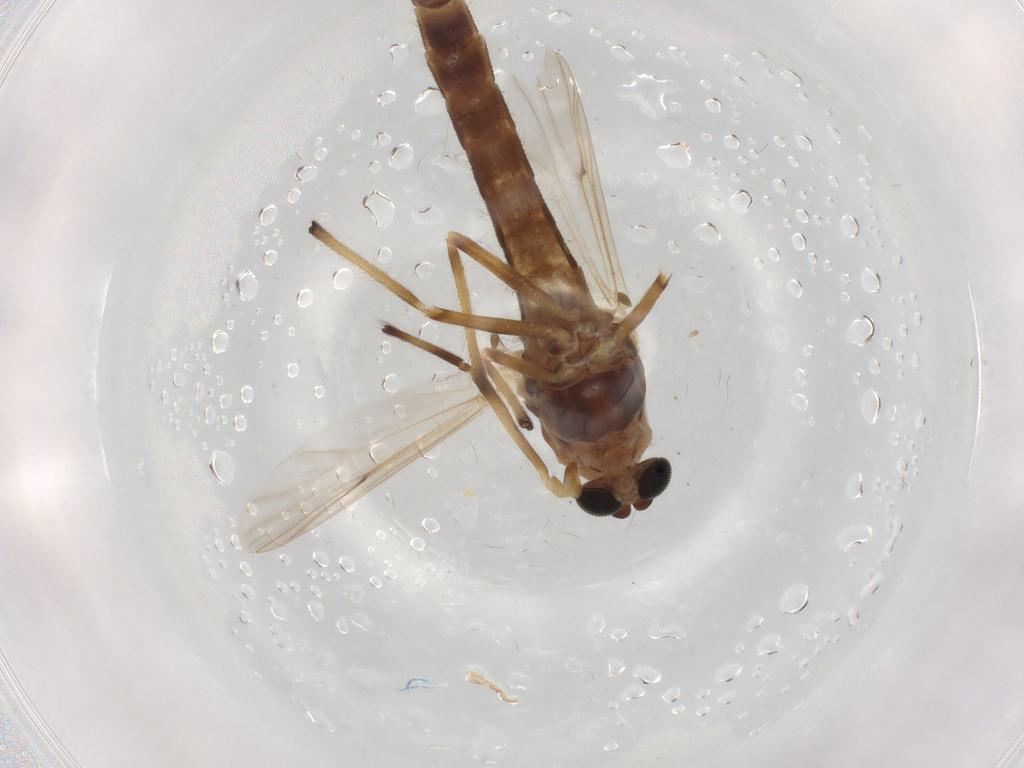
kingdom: Animalia
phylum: Arthropoda
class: Insecta
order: Diptera
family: Chironomidae
